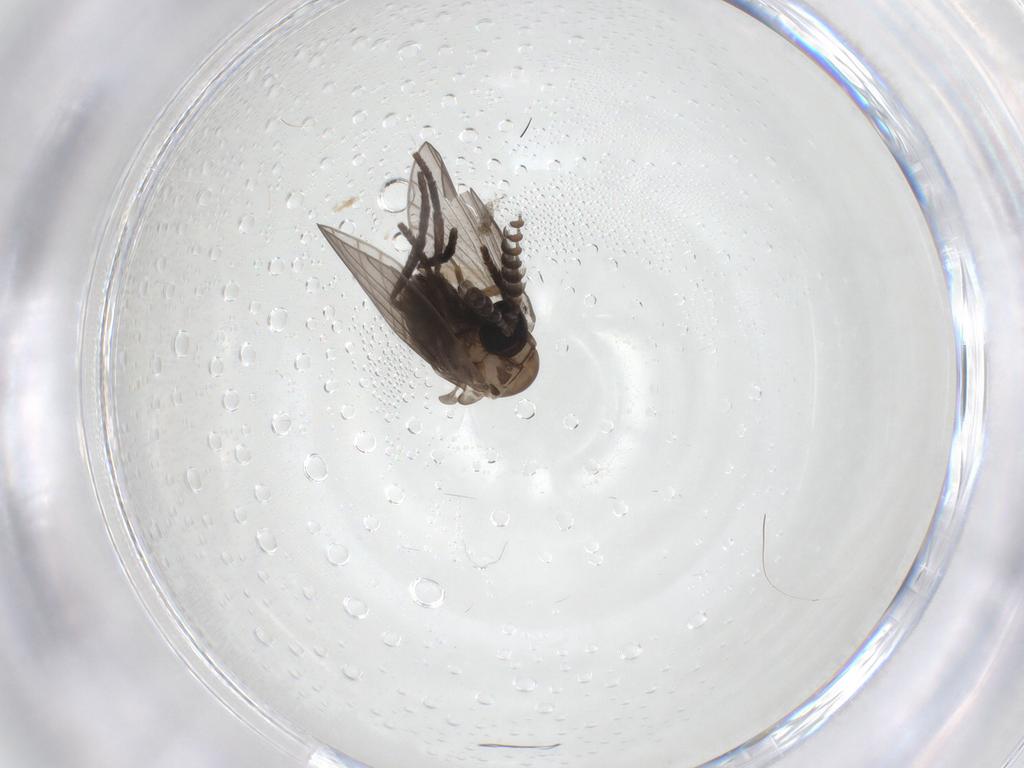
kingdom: Animalia
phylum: Arthropoda
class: Insecta
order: Diptera
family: Psychodidae
